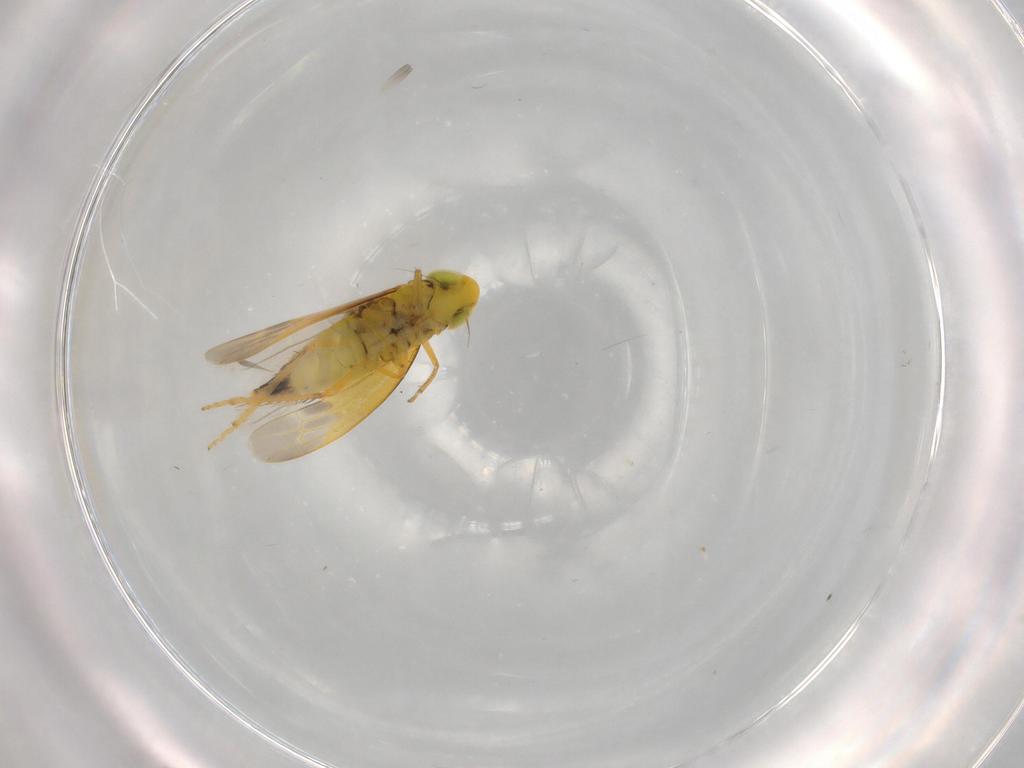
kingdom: Animalia
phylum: Arthropoda
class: Insecta
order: Hemiptera
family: Cicadellidae
